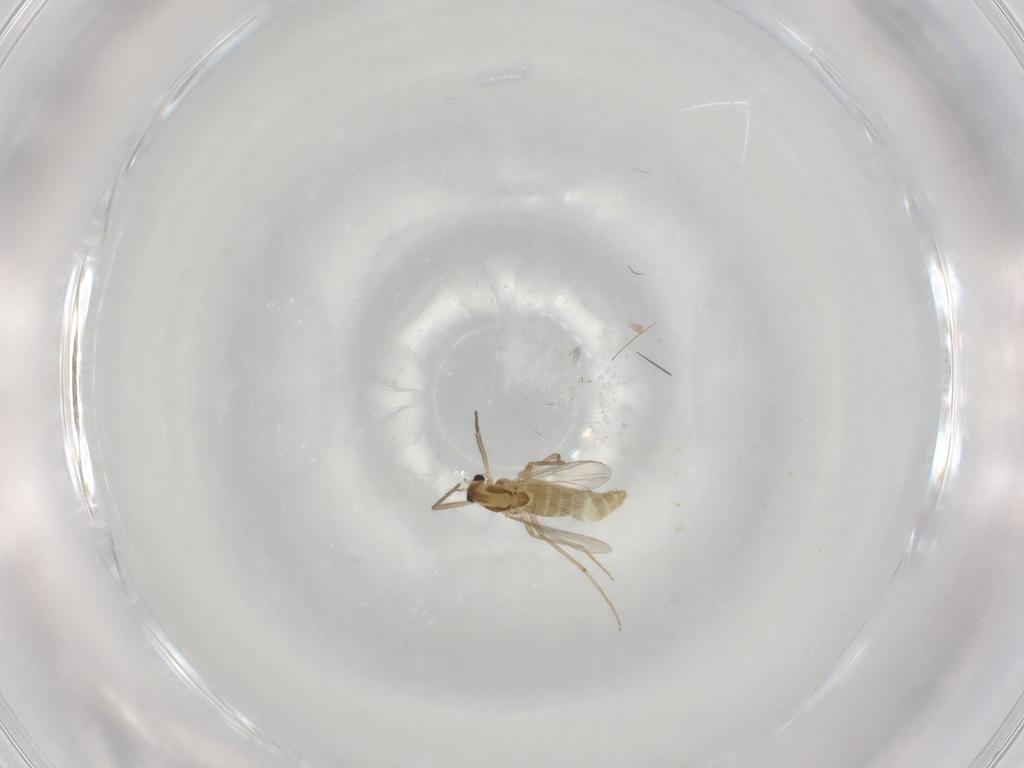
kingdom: Animalia
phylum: Arthropoda
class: Insecta
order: Diptera
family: Chironomidae
